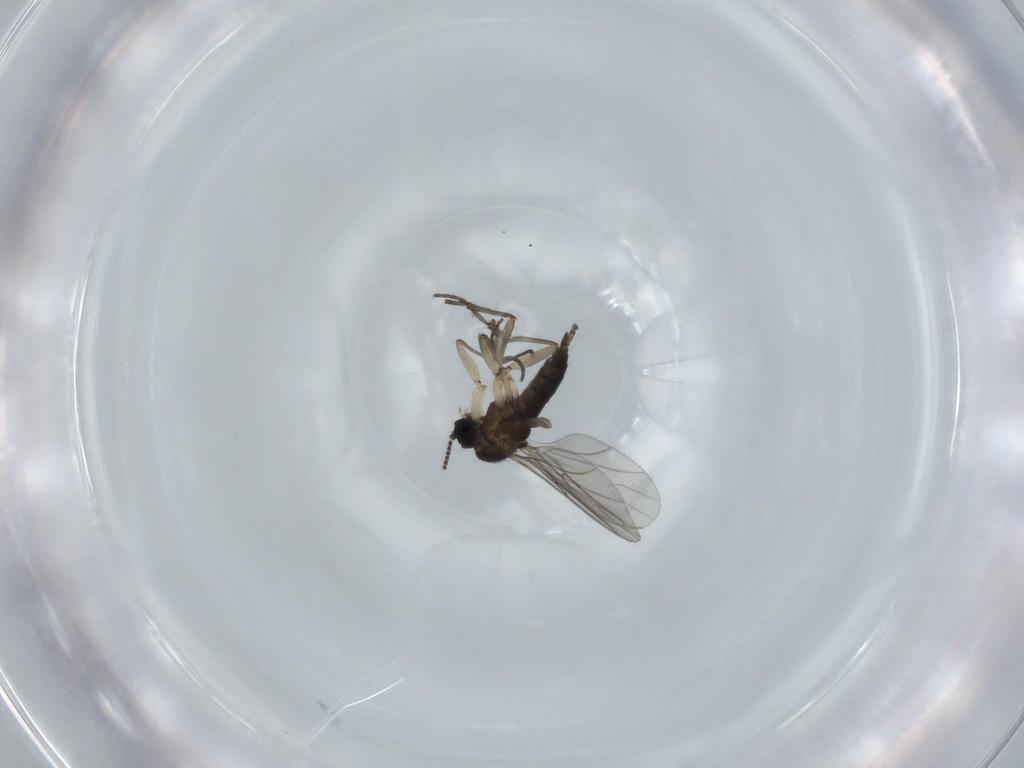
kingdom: Animalia
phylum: Arthropoda
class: Insecta
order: Diptera
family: Sciaridae
